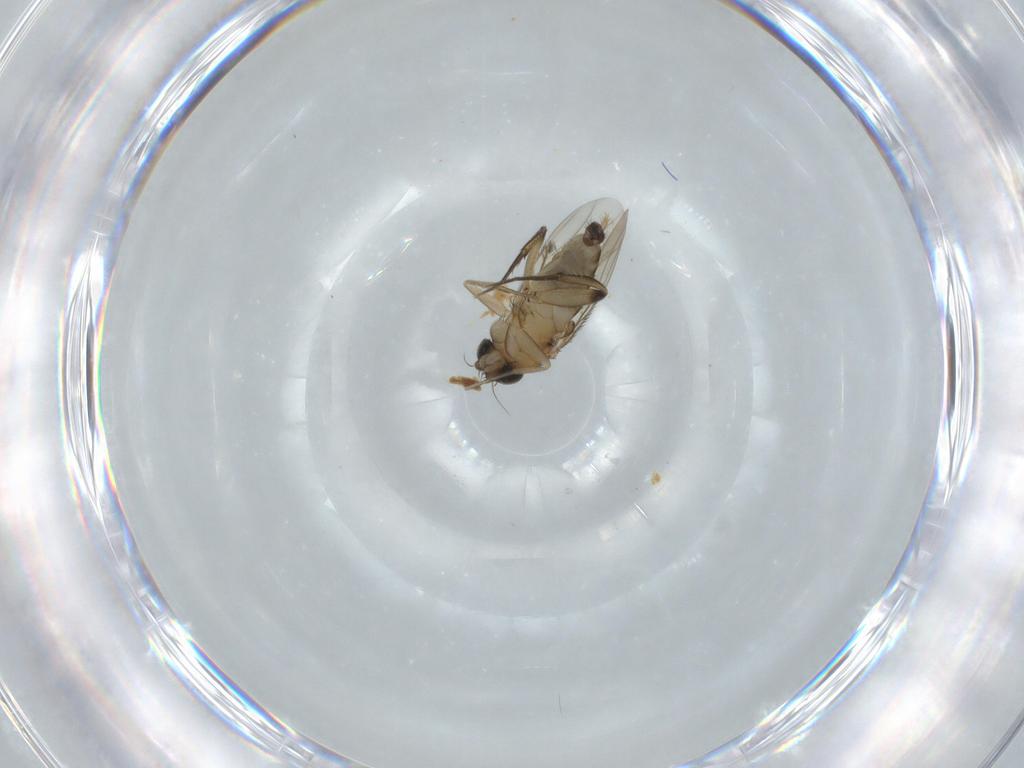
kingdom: Animalia
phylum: Arthropoda
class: Insecta
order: Diptera
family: Phoridae
